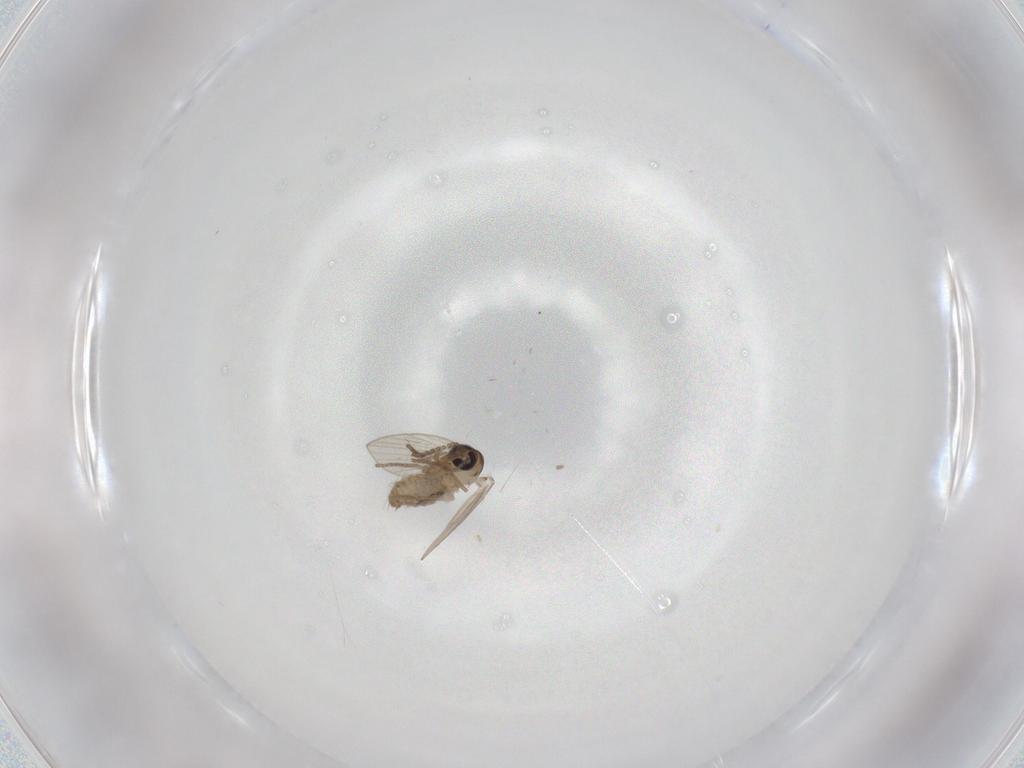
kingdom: Animalia
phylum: Arthropoda
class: Insecta
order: Diptera
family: Psychodidae
